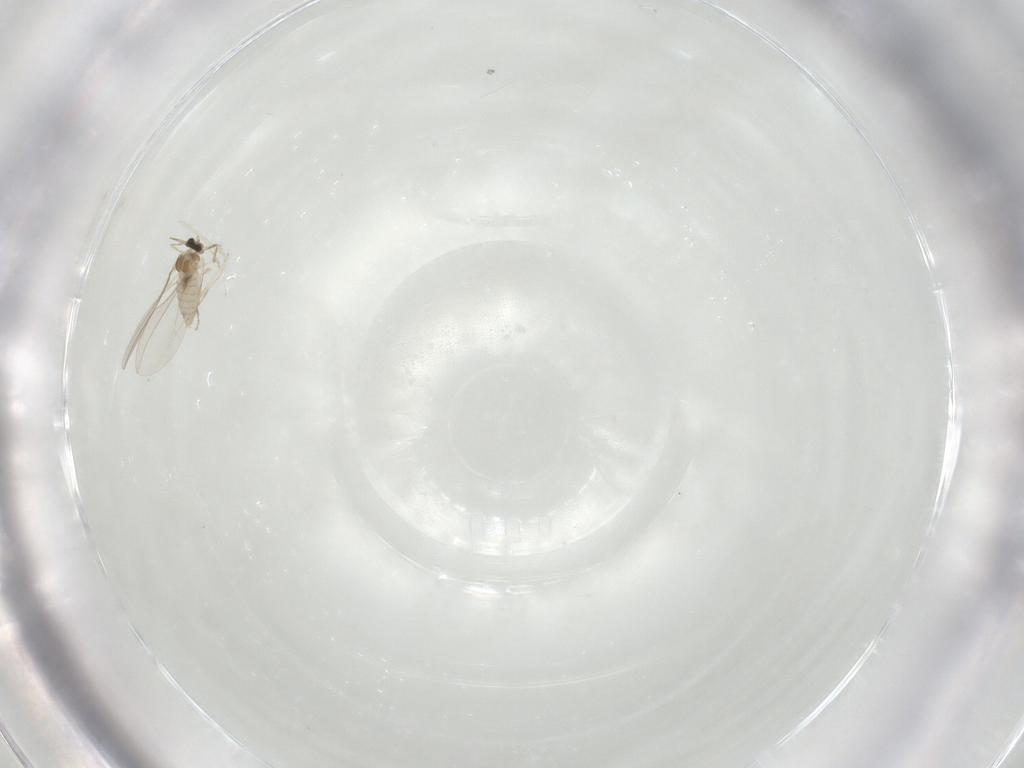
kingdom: Animalia
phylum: Arthropoda
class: Insecta
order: Diptera
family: Cecidomyiidae
